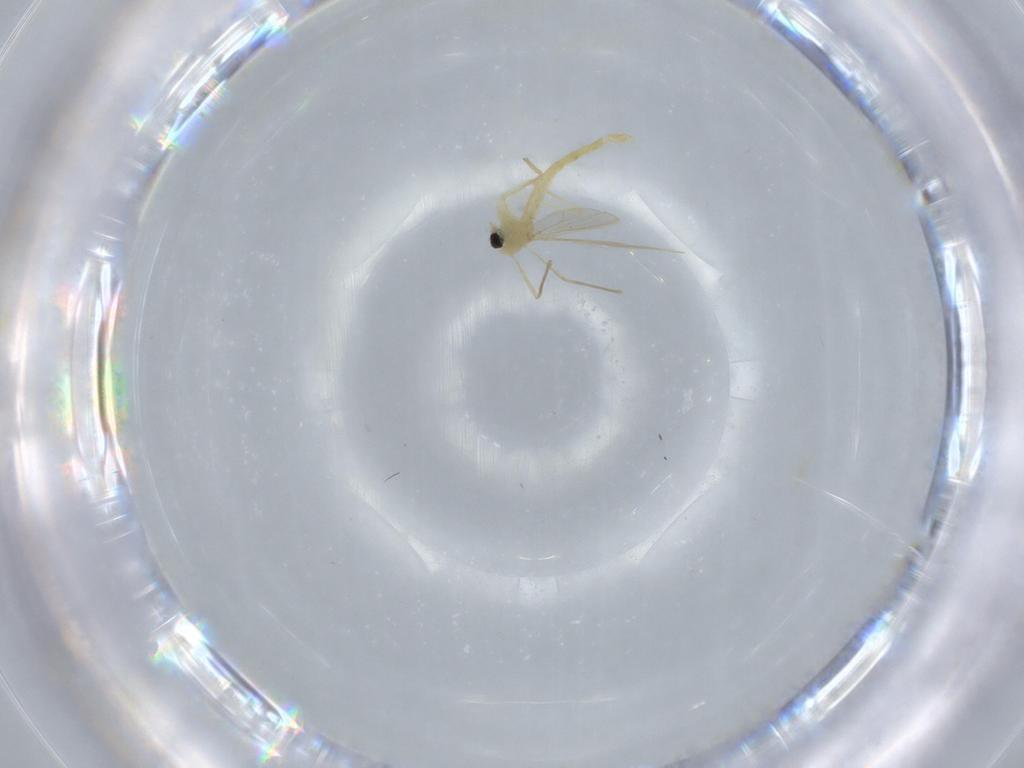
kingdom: Animalia
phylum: Arthropoda
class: Insecta
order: Diptera
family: Chironomidae
